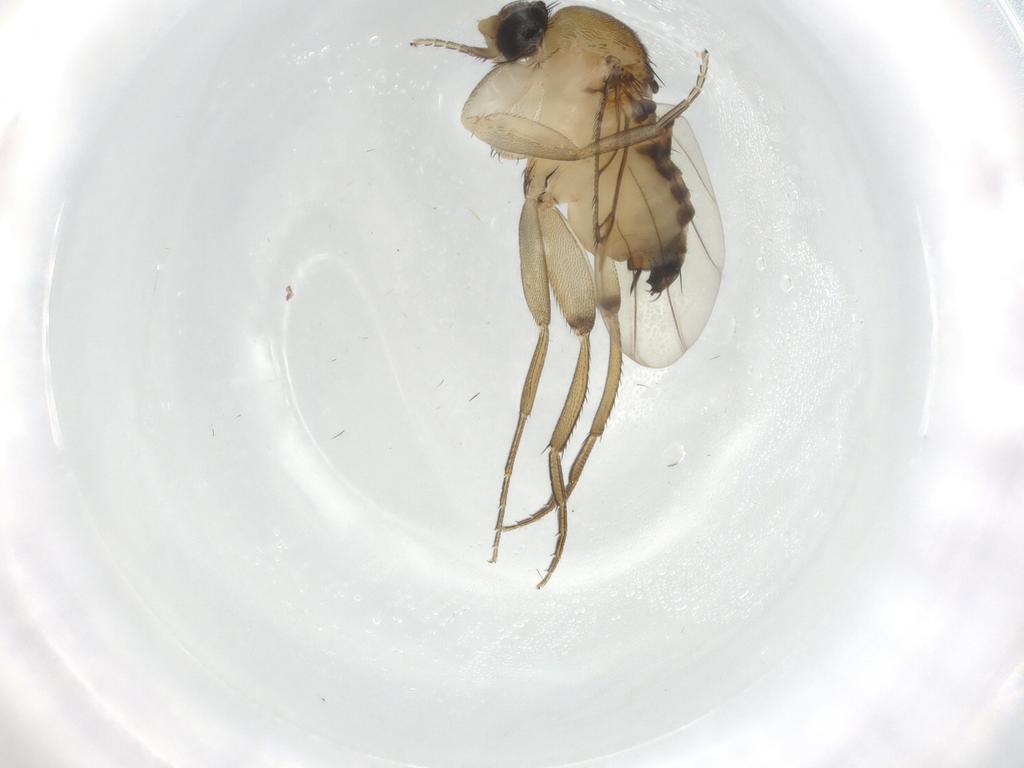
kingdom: Animalia
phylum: Arthropoda
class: Insecta
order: Diptera
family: Phoridae
